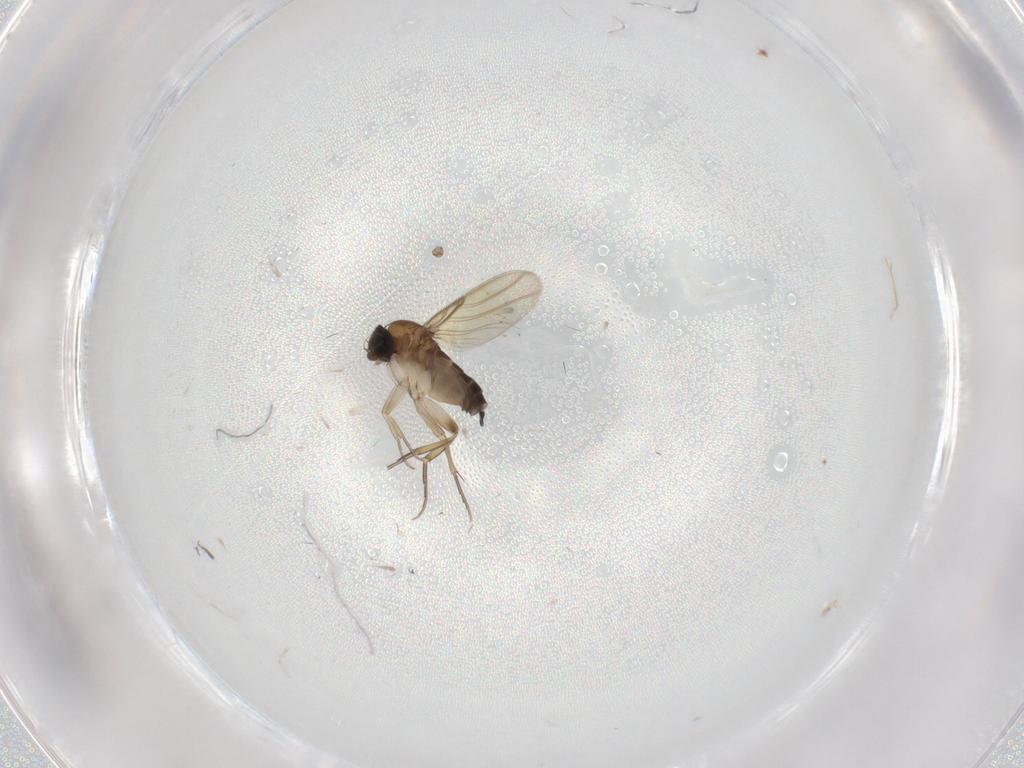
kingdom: Animalia
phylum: Arthropoda
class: Insecta
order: Diptera
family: Phoridae
